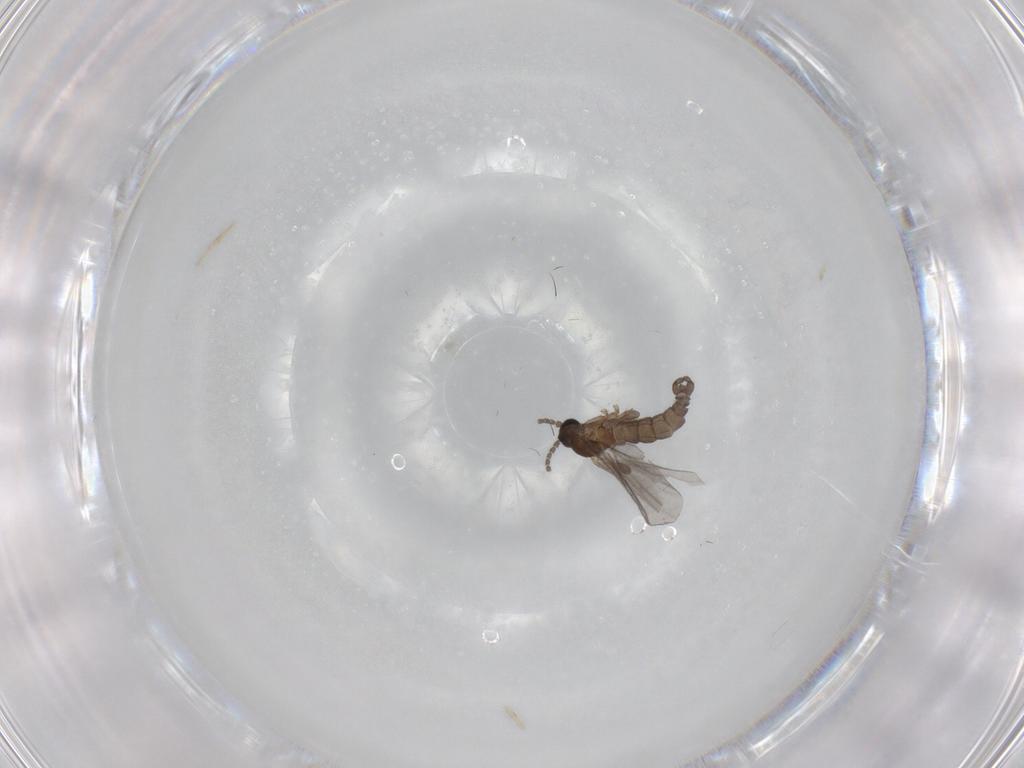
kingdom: Animalia
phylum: Arthropoda
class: Insecta
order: Diptera
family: Sciaridae
